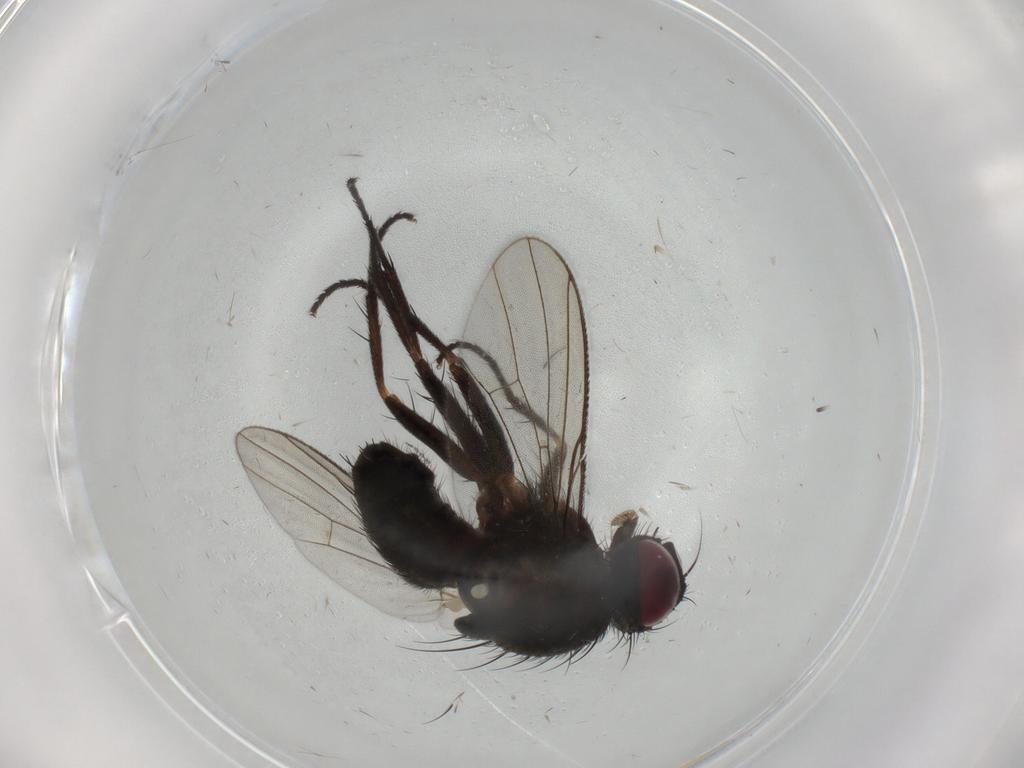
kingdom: Animalia
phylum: Arthropoda
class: Insecta
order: Diptera
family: Muscidae
